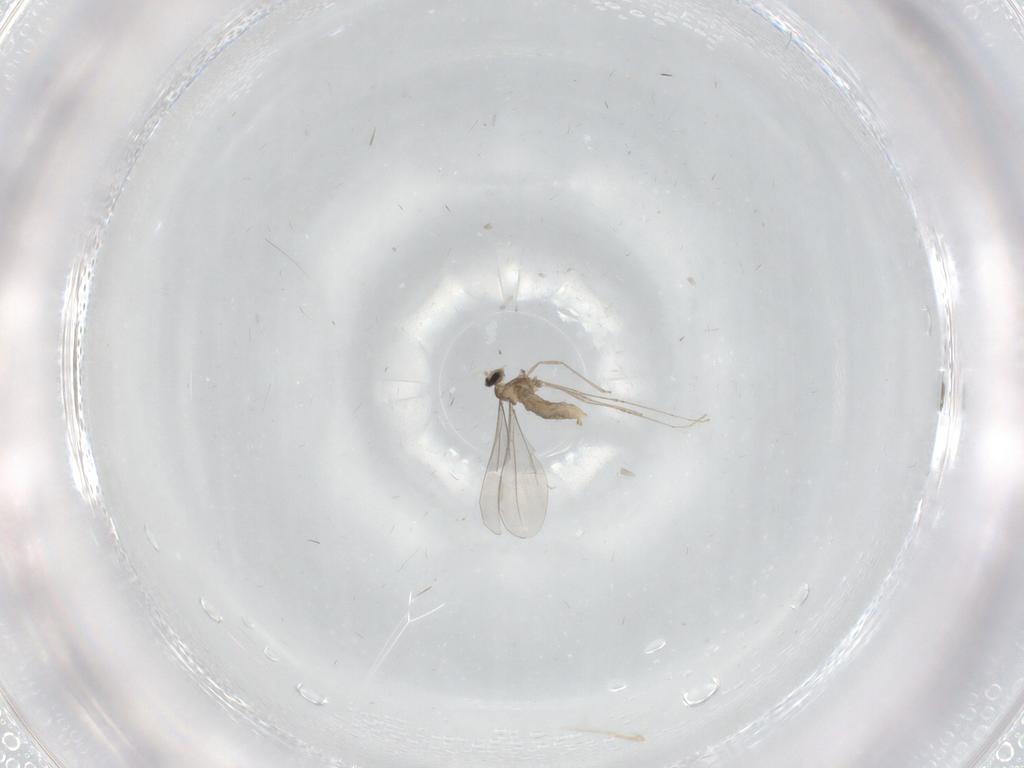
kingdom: Animalia
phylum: Arthropoda
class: Insecta
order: Diptera
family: Cecidomyiidae
